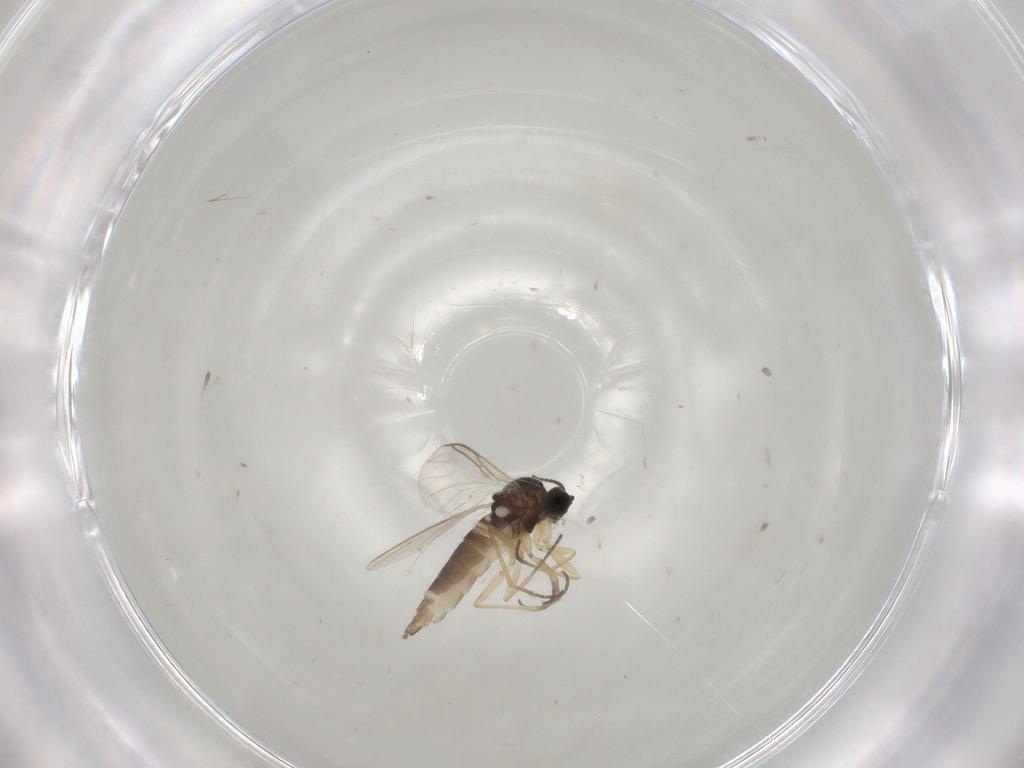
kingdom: Animalia
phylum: Arthropoda
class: Insecta
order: Diptera
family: Sciaridae
